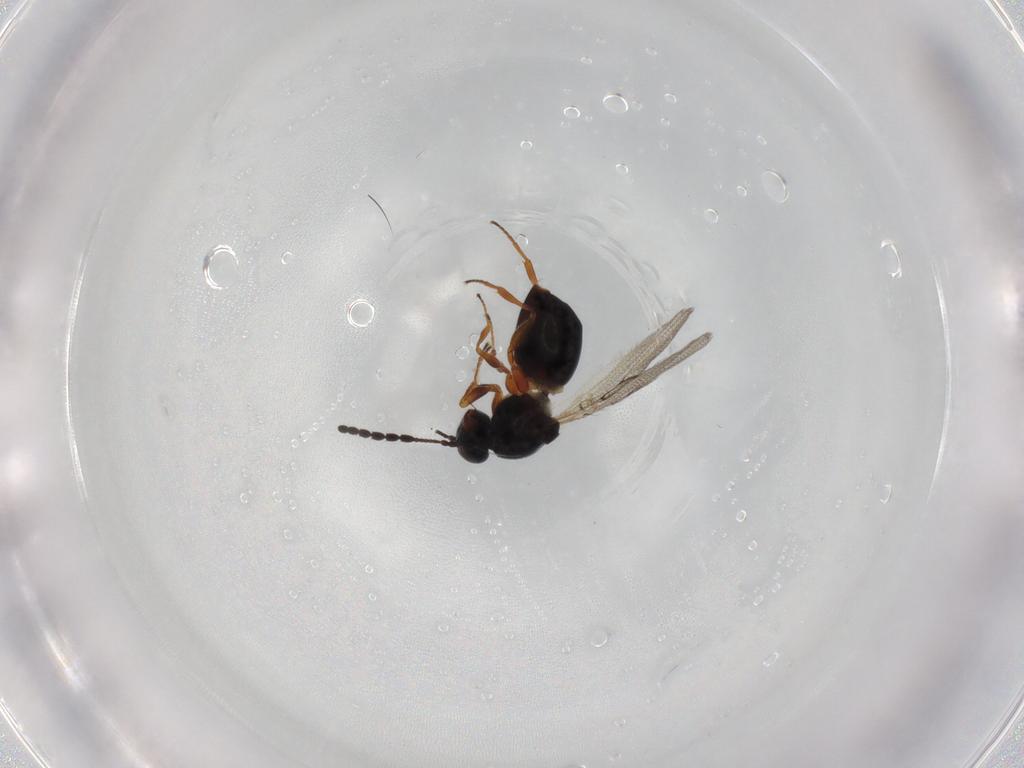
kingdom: Animalia
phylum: Arthropoda
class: Insecta
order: Hymenoptera
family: Figitidae
